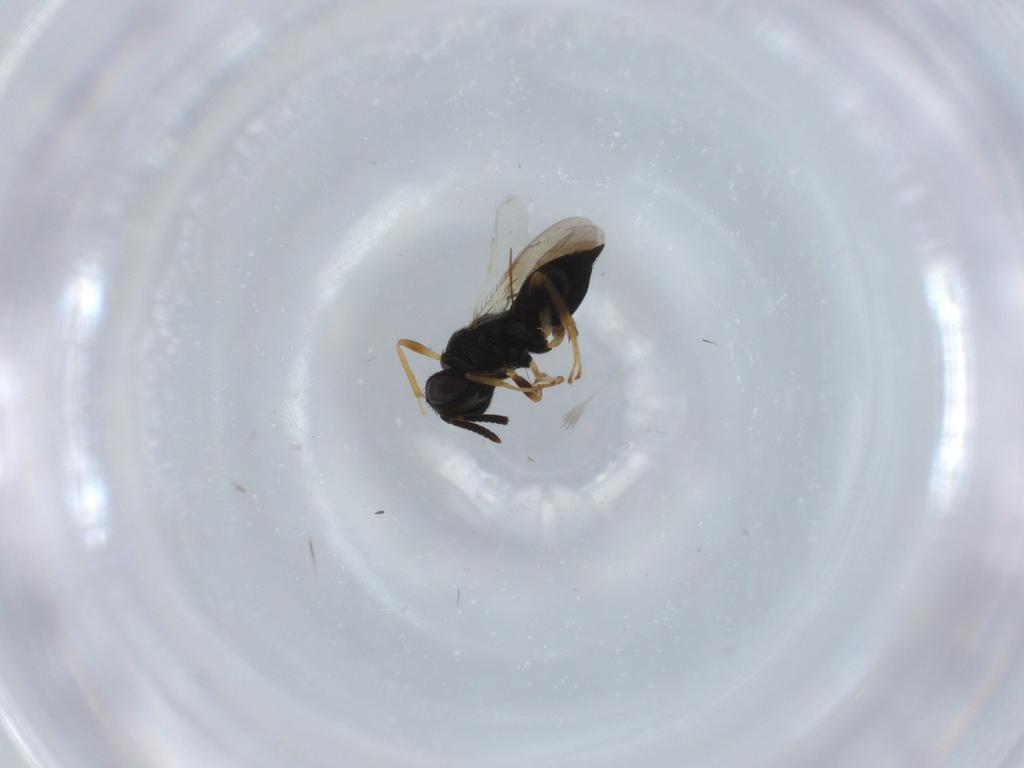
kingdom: Animalia
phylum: Arthropoda
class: Insecta
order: Hymenoptera
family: Pteromalidae
